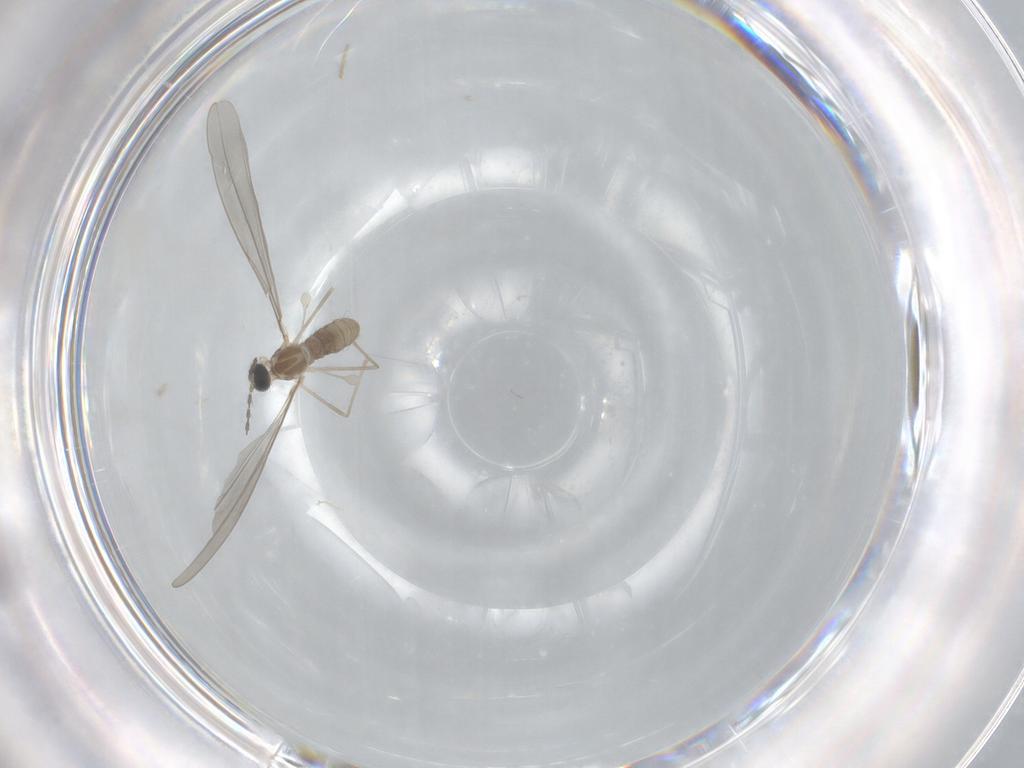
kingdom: Animalia
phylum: Arthropoda
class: Insecta
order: Diptera
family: Cecidomyiidae
